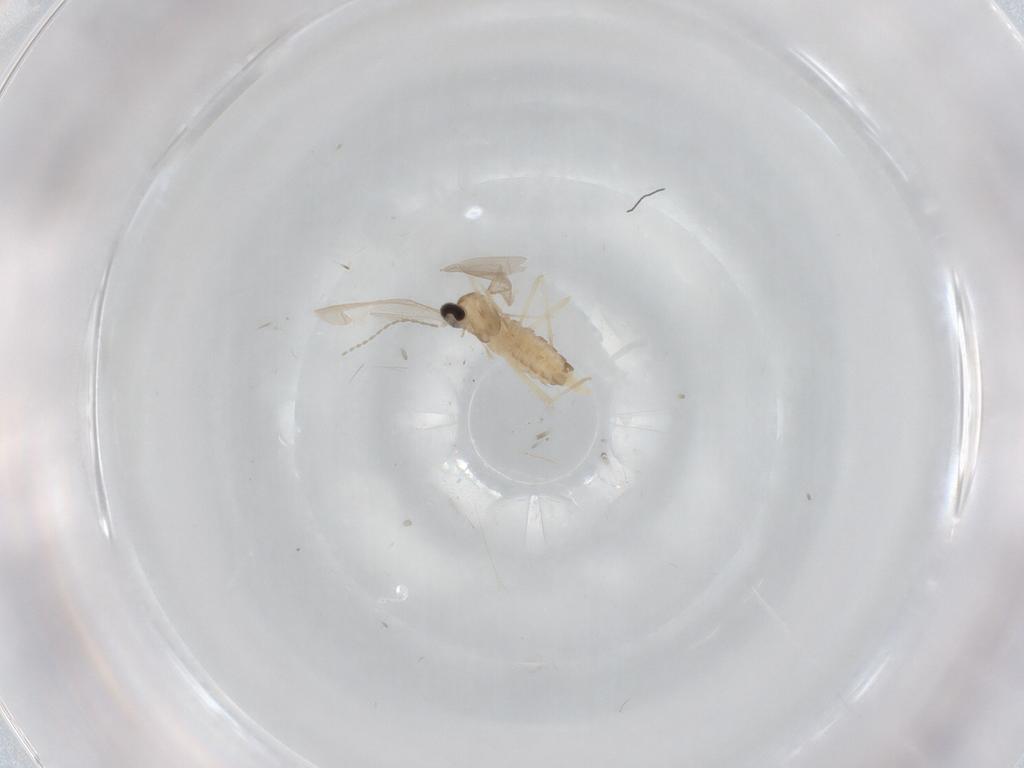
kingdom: Animalia
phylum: Arthropoda
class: Insecta
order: Diptera
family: Cecidomyiidae
